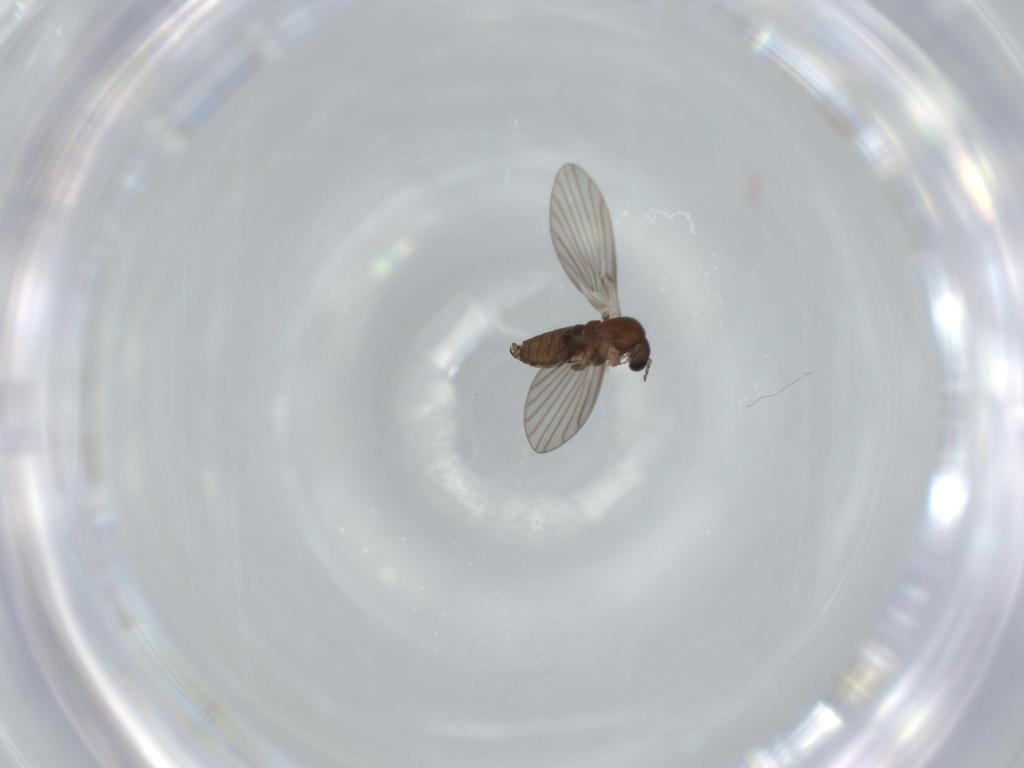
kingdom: Animalia
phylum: Arthropoda
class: Insecta
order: Diptera
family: Psychodidae
